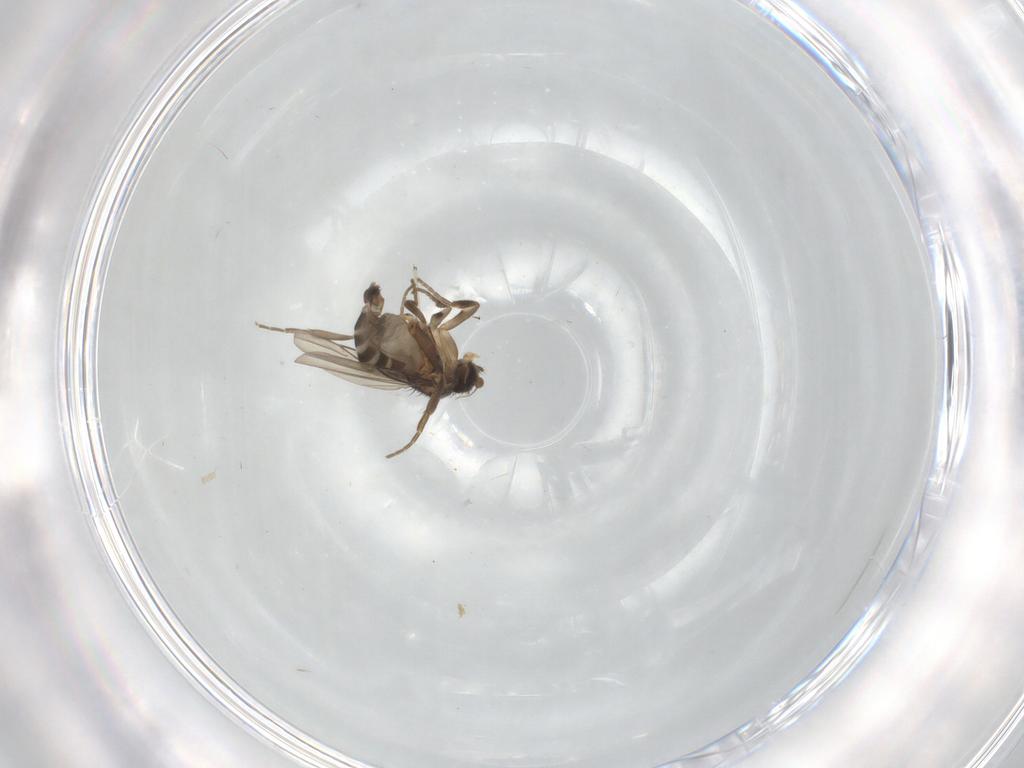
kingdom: Animalia
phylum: Arthropoda
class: Insecta
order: Diptera
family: Phoridae
